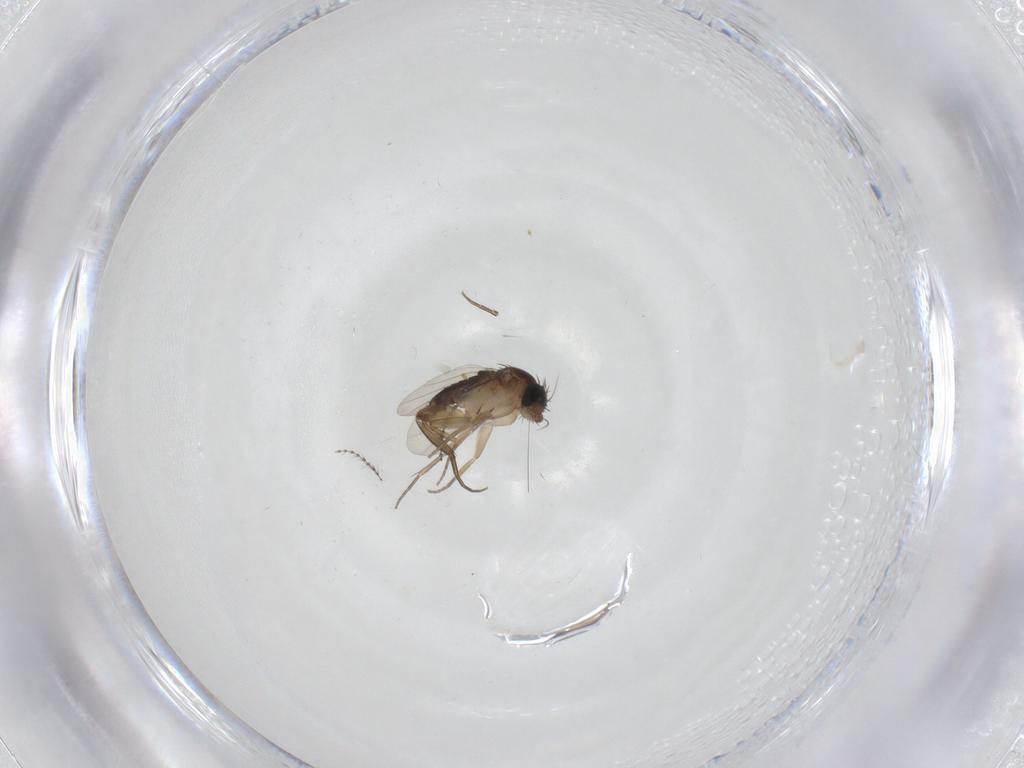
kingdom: Animalia
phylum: Arthropoda
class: Insecta
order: Diptera
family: Phoridae
